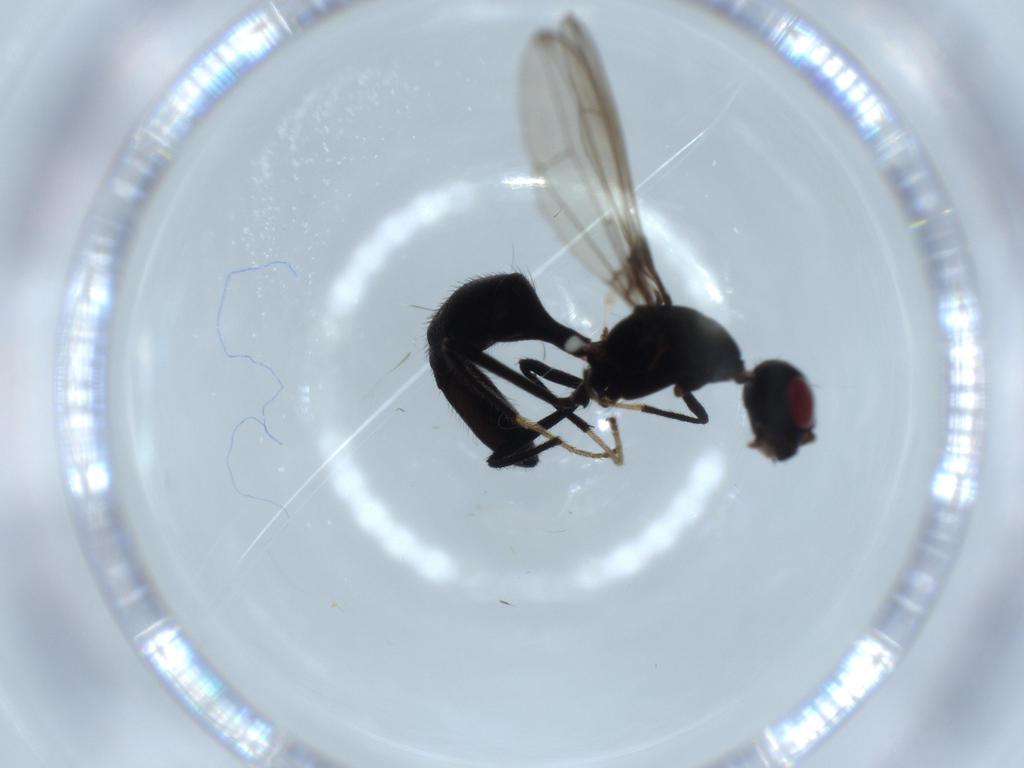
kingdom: Animalia
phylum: Arthropoda
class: Insecta
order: Diptera
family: Richardiidae
